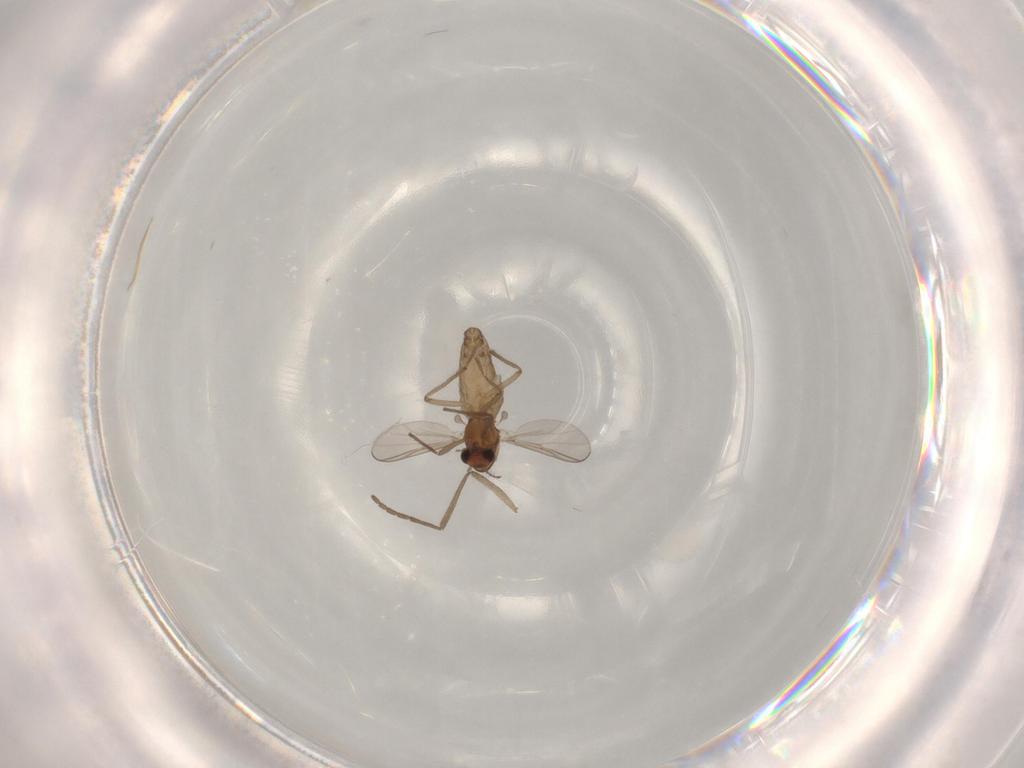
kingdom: Animalia
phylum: Arthropoda
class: Insecta
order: Diptera
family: Chironomidae
